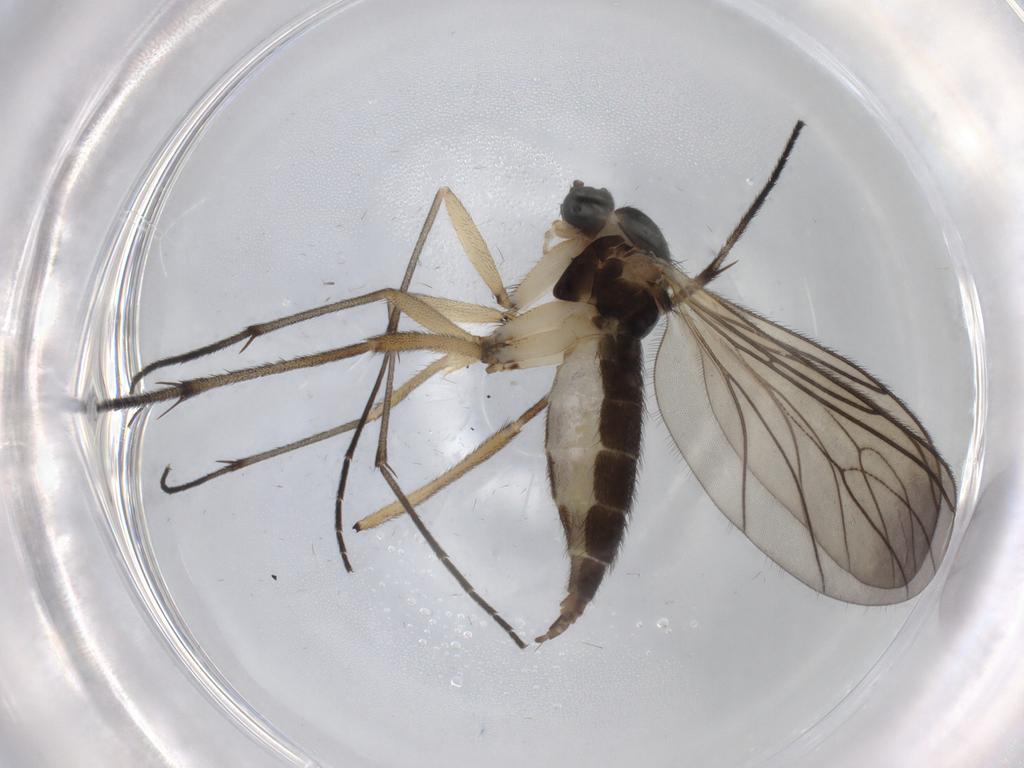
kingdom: Animalia
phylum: Arthropoda
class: Insecta
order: Diptera
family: Sciaridae
